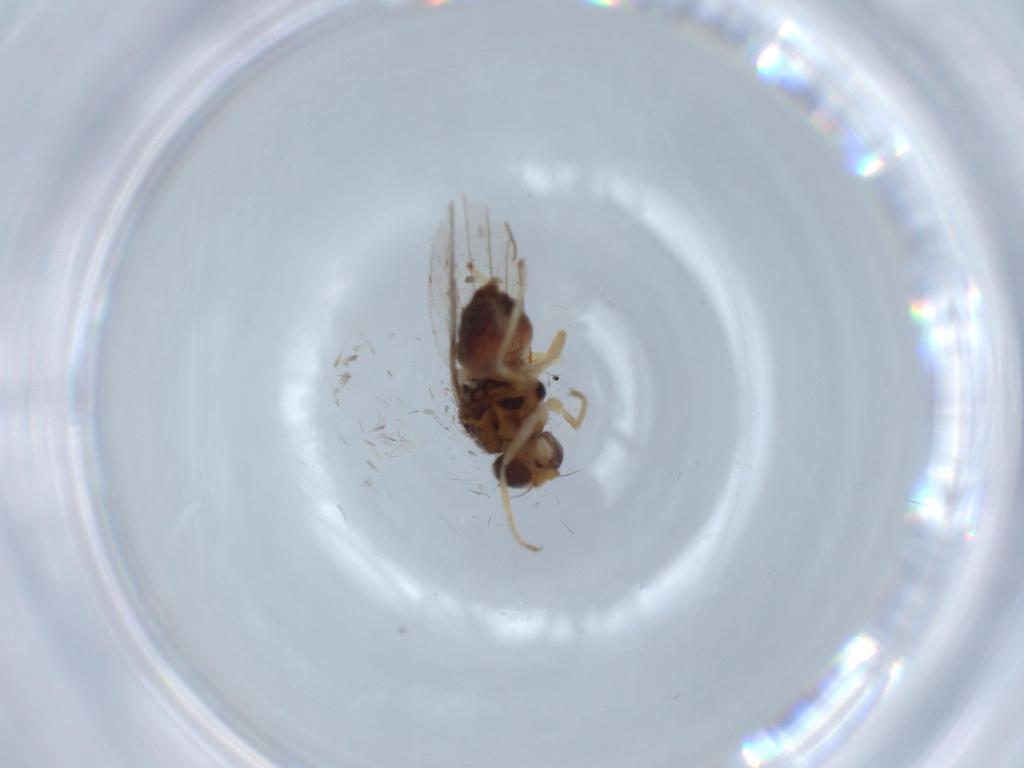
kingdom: Animalia
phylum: Arthropoda
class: Insecta
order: Diptera
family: Chloropidae
